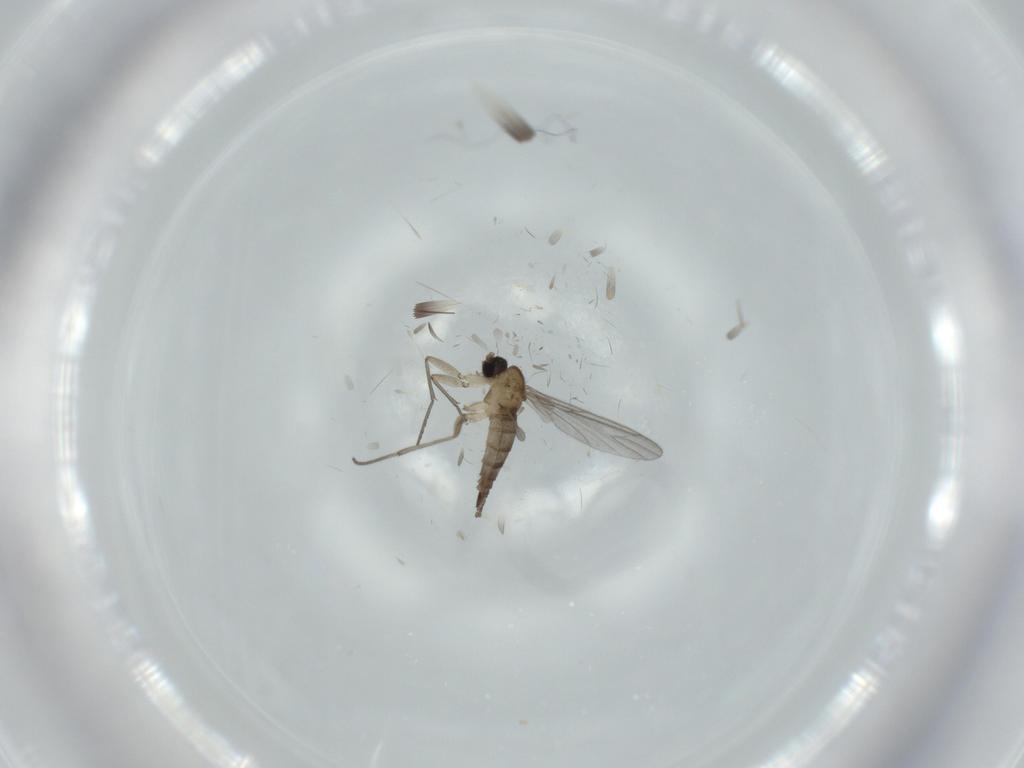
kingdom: Animalia
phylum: Arthropoda
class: Insecta
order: Diptera
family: Sciaridae
